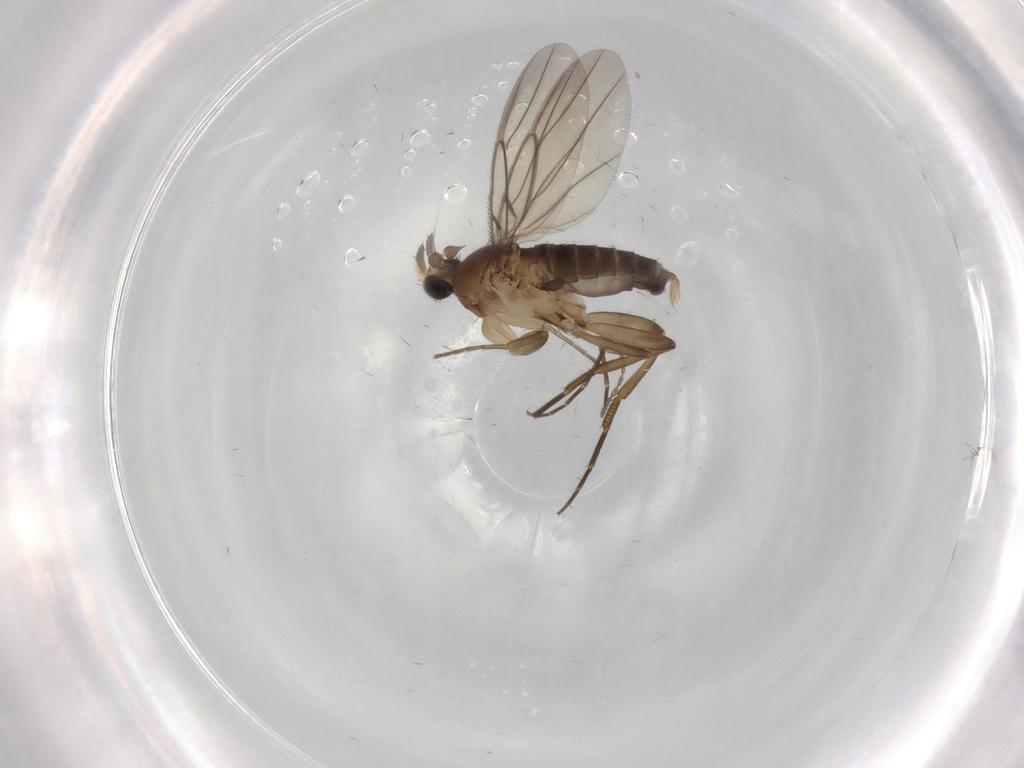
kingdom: Animalia
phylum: Arthropoda
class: Insecta
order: Diptera
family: Phoridae
